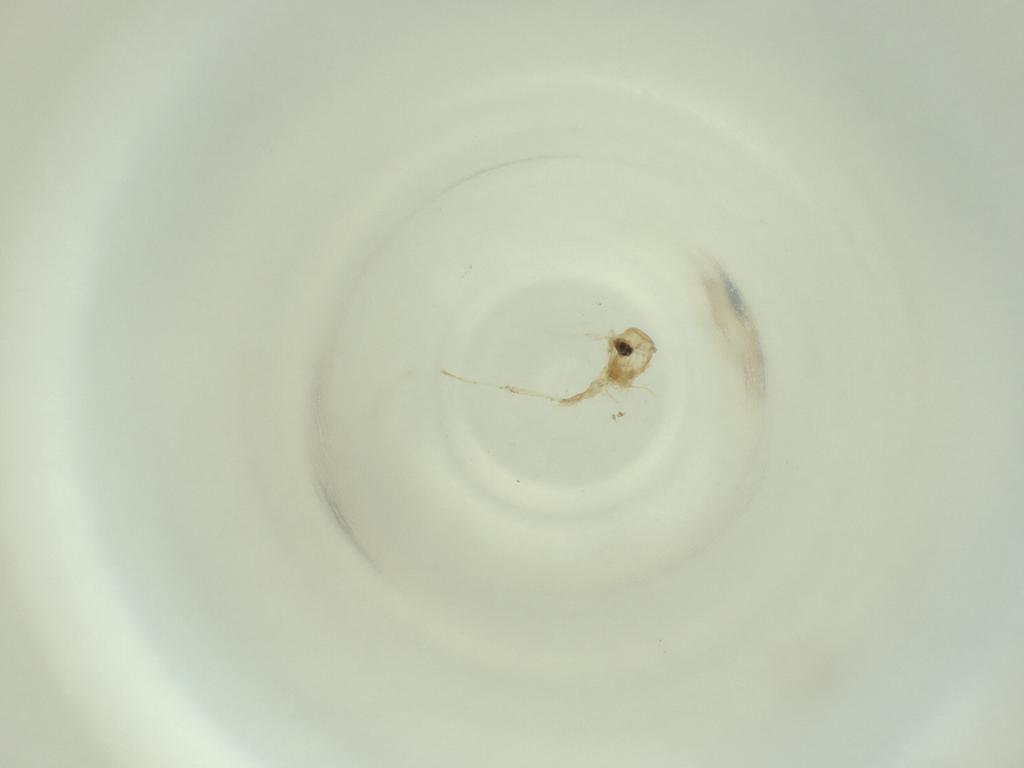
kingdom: Animalia
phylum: Arthropoda
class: Insecta
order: Diptera
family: Cecidomyiidae
